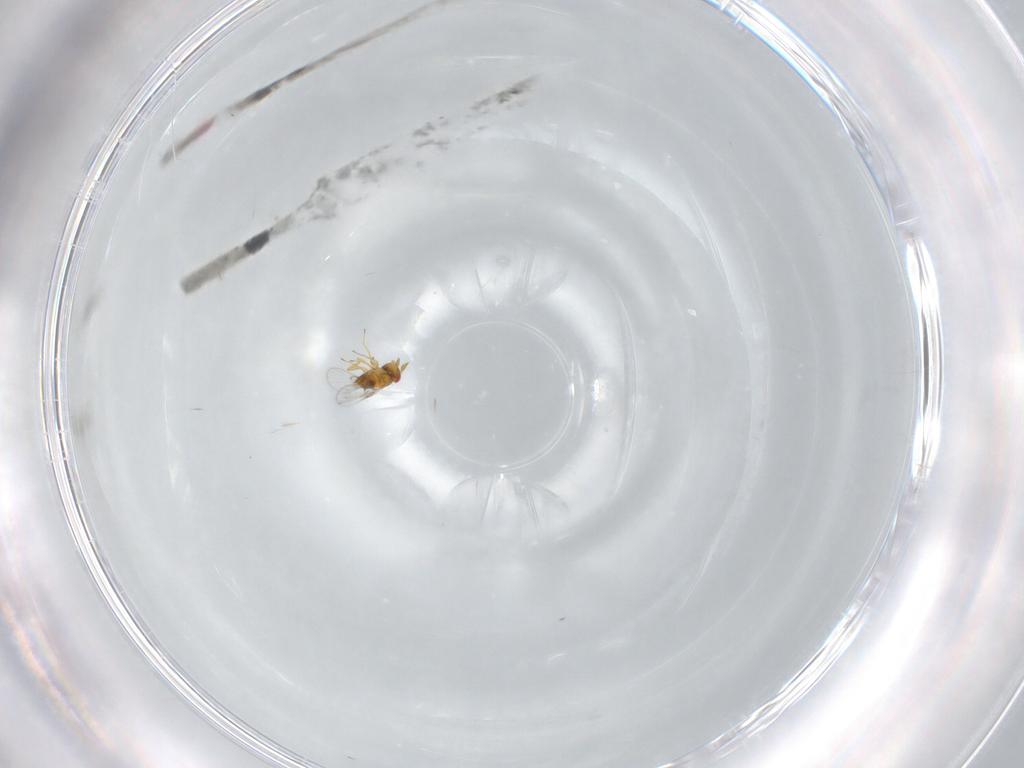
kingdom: Animalia
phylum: Arthropoda
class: Insecta
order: Hymenoptera
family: Trichogrammatidae
